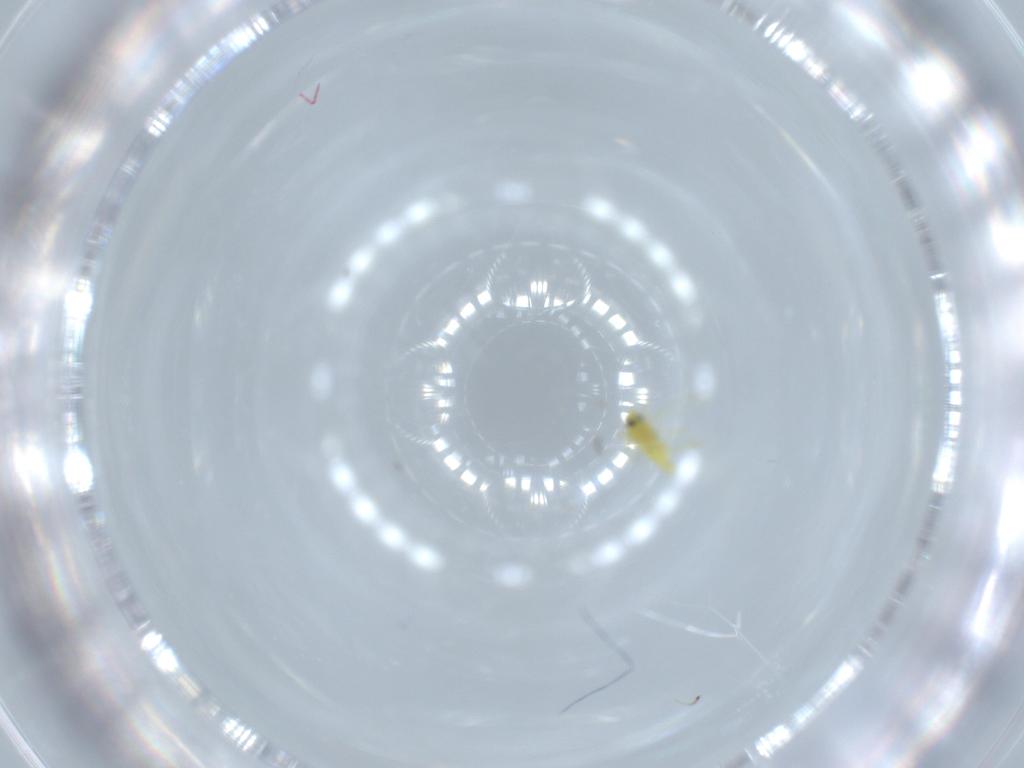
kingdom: Animalia
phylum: Arthropoda
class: Insecta
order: Hemiptera
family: Aleyrodidae
